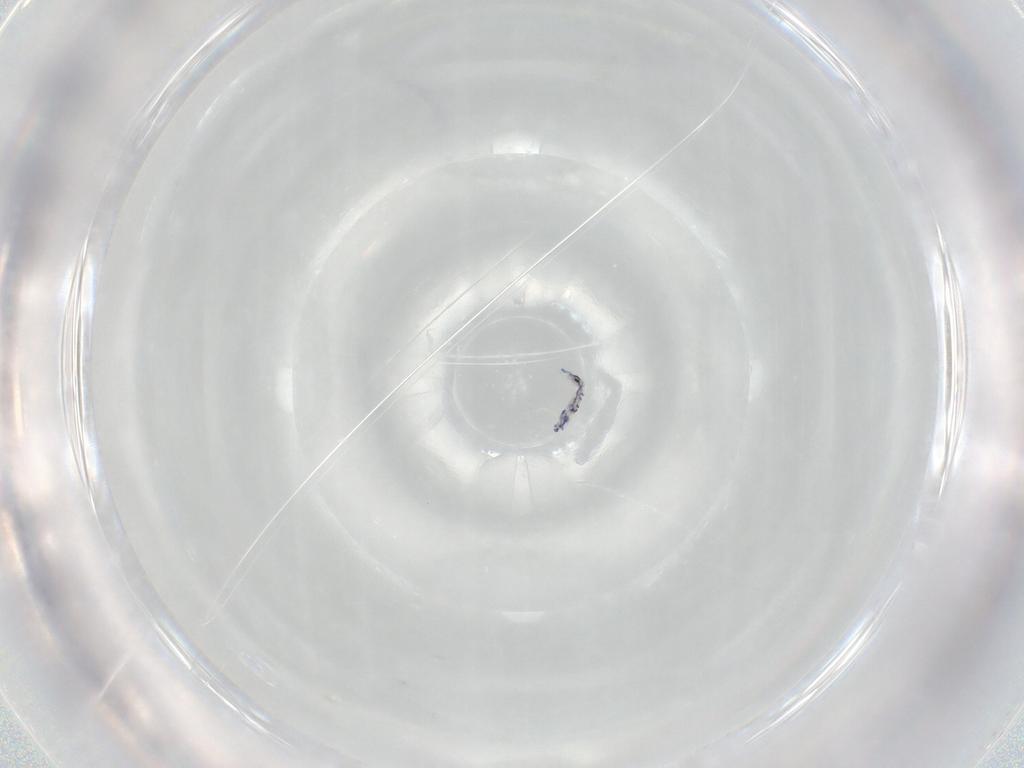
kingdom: Animalia
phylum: Arthropoda
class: Collembola
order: Entomobryomorpha
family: Entomobryidae
